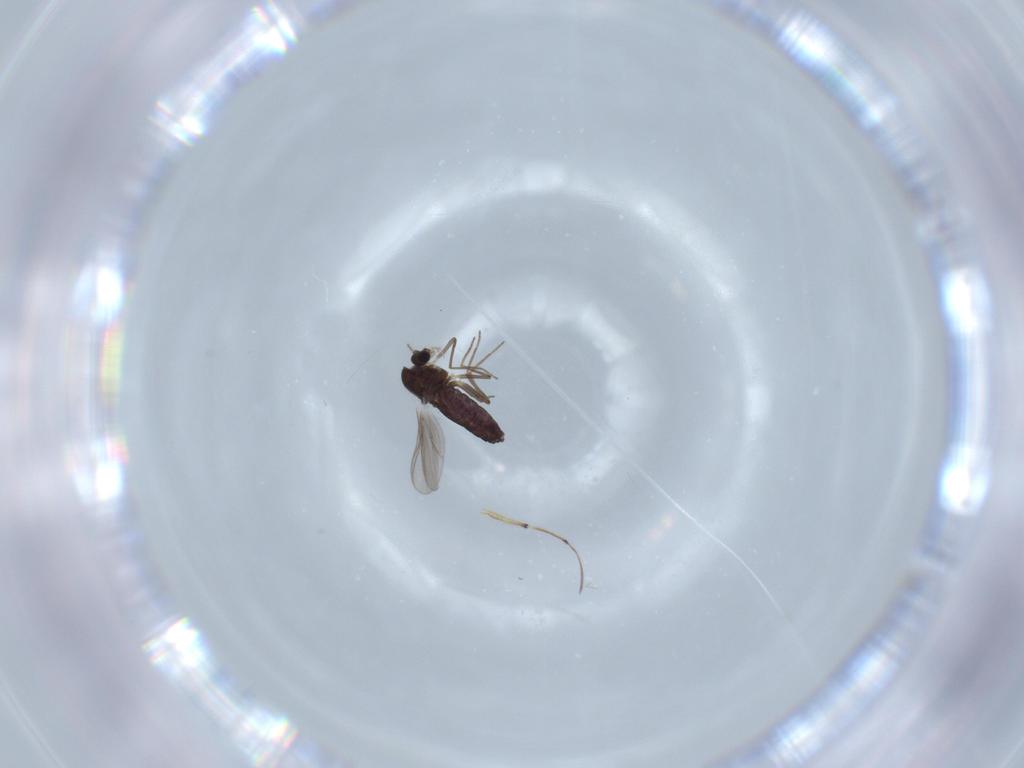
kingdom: Animalia
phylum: Arthropoda
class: Insecta
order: Diptera
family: Chironomidae
